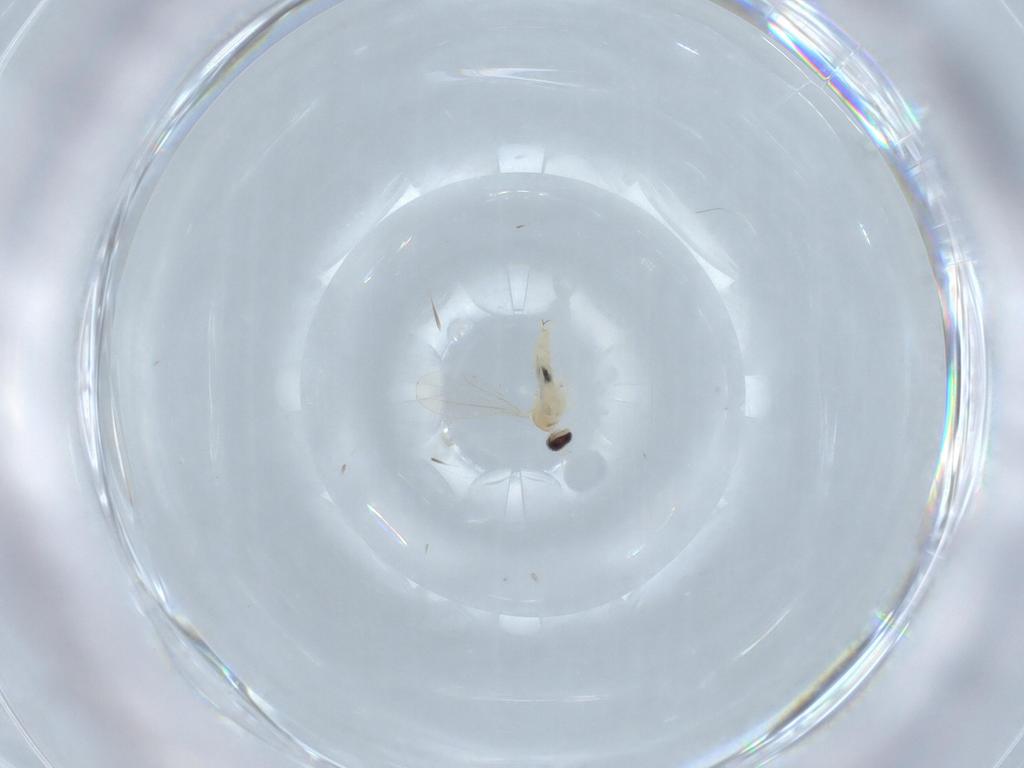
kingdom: Animalia
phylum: Arthropoda
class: Insecta
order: Diptera
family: Cecidomyiidae
